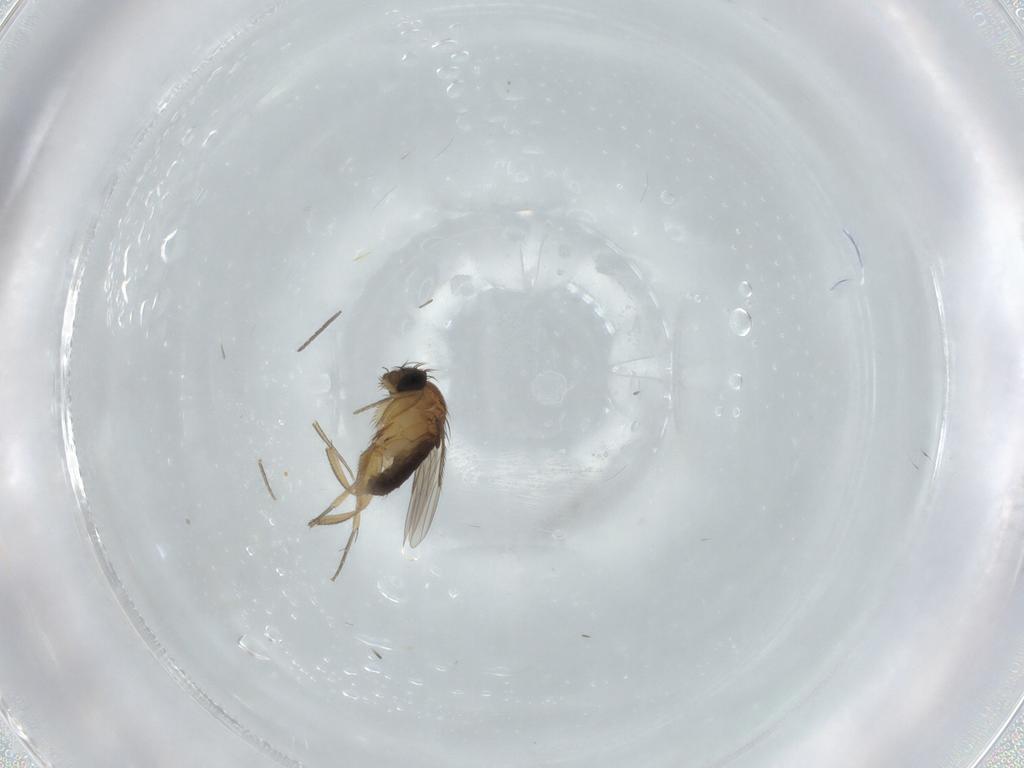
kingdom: Animalia
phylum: Arthropoda
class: Insecta
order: Diptera
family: Phoridae
